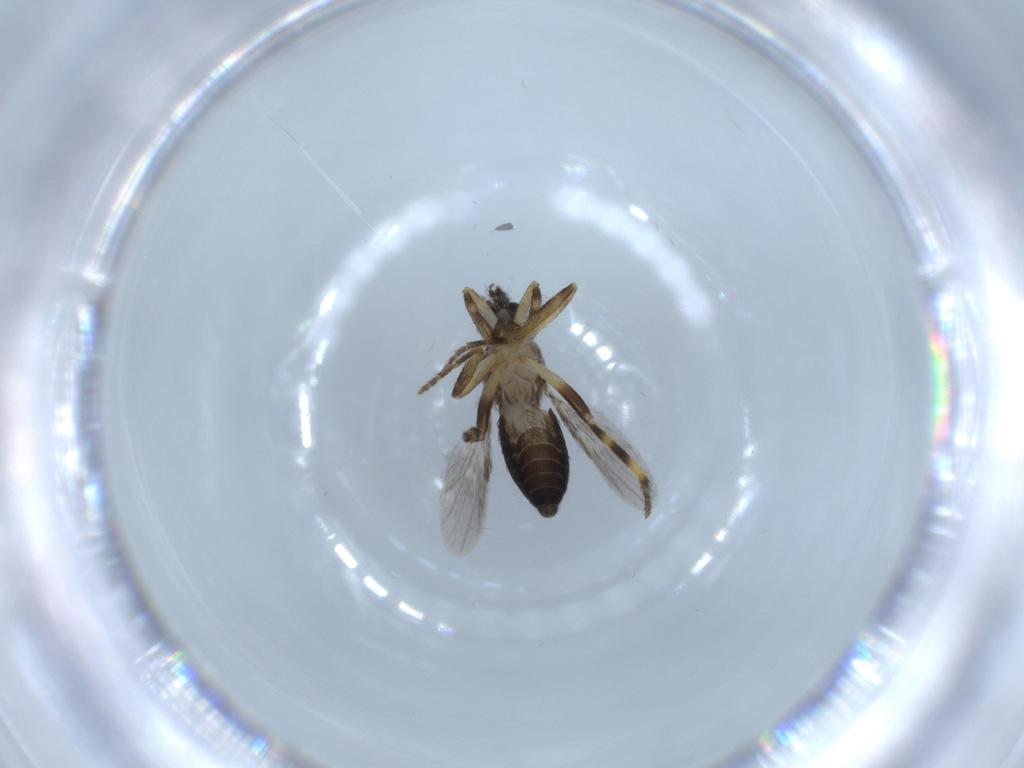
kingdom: Animalia
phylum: Arthropoda
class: Insecta
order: Diptera
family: Ceratopogonidae
